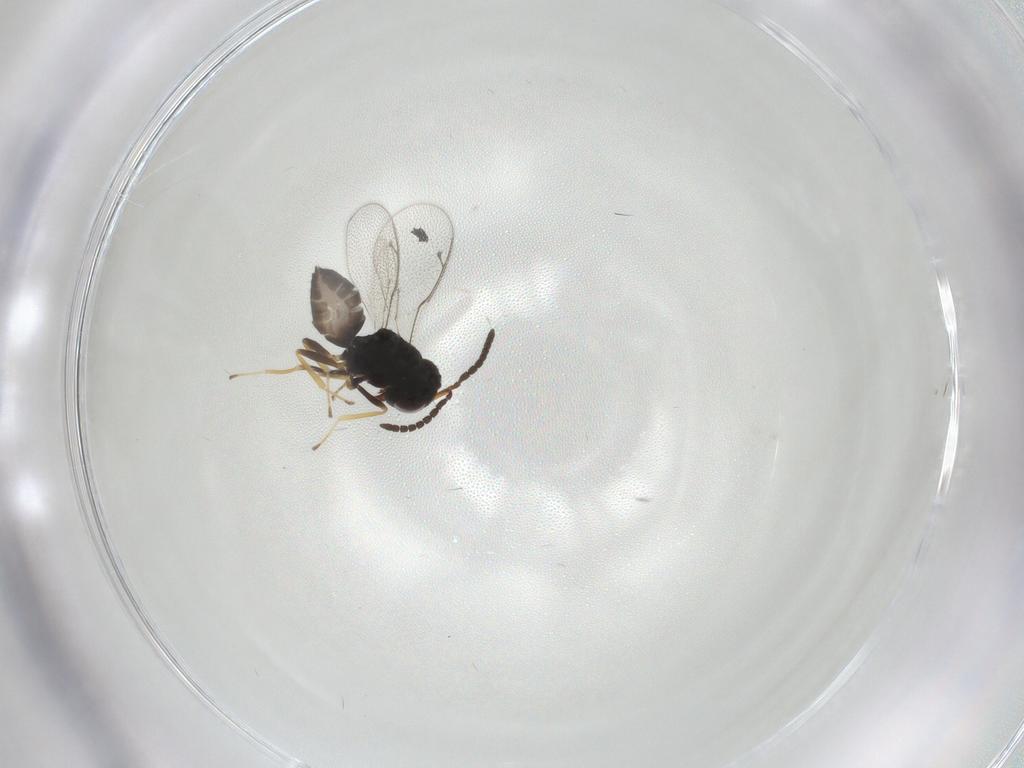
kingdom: Animalia
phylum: Arthropoda
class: Insecta
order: Hymenoptera
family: Pteromalidae
